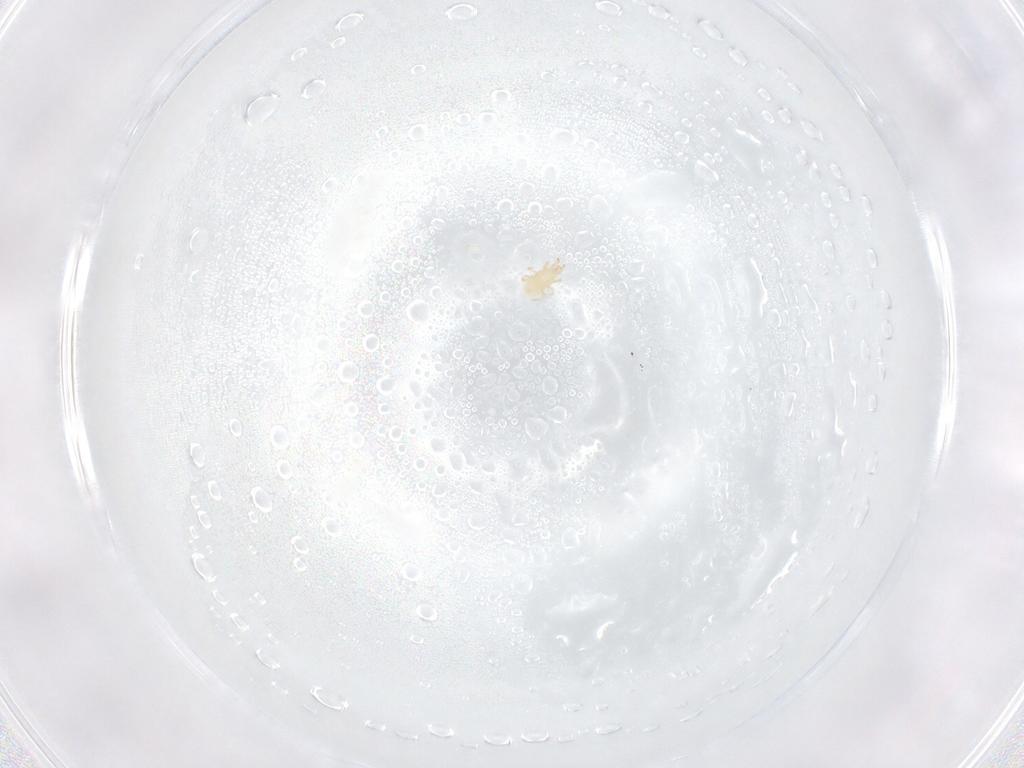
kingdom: Animalia
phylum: Arthropoda
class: Arachnida
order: Mesostigmata
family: Phytoseiidae
